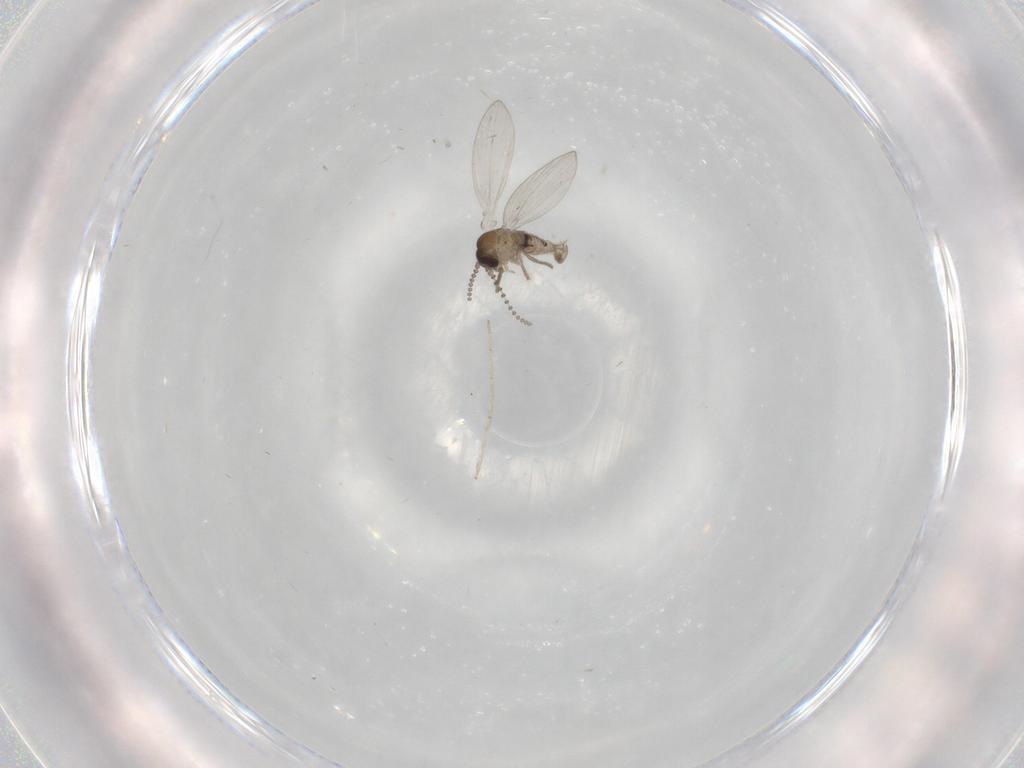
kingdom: Animalia
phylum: Arthropoda
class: Insecta
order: Diptera
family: Psychodidae
